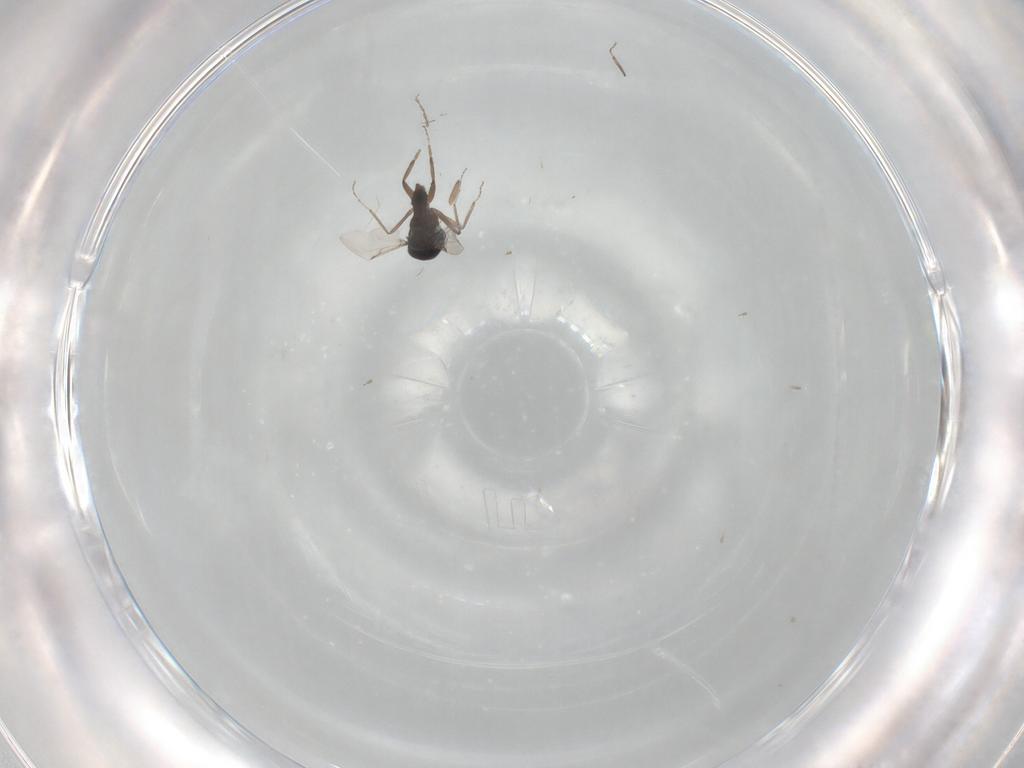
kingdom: Animalia
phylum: Arthropoda
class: Insecta
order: Diptera
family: Ceratopogonidae
